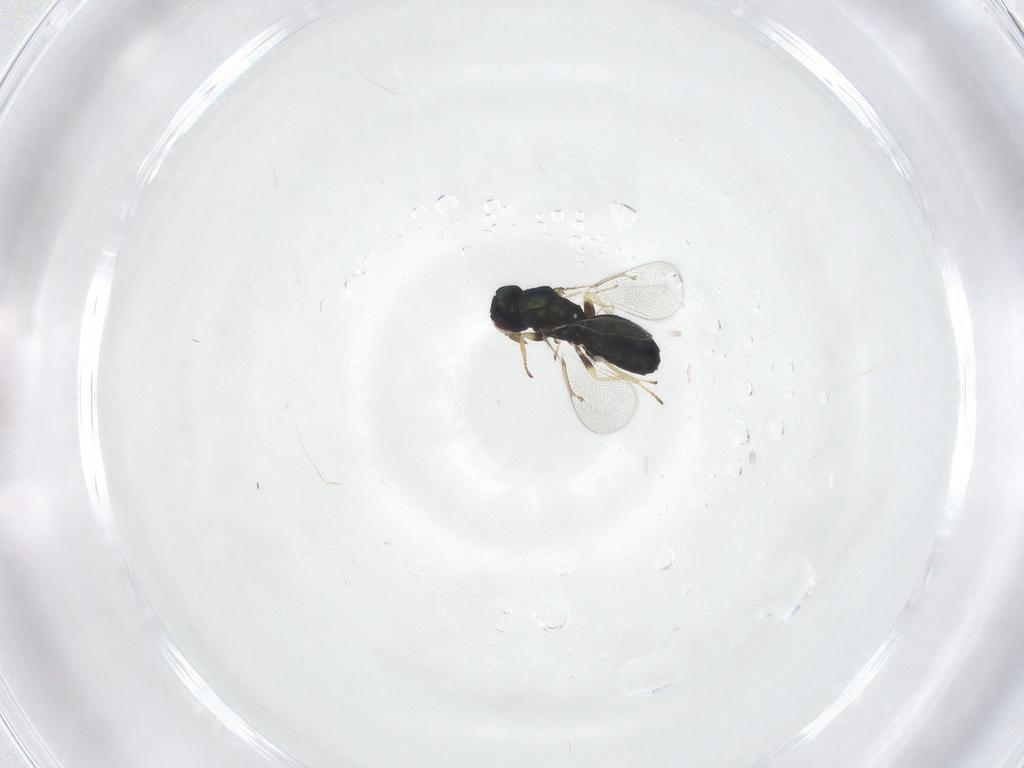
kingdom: Animalia
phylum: Arthropoda
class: Insecta
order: Hymenoptera
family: Eulophidae
